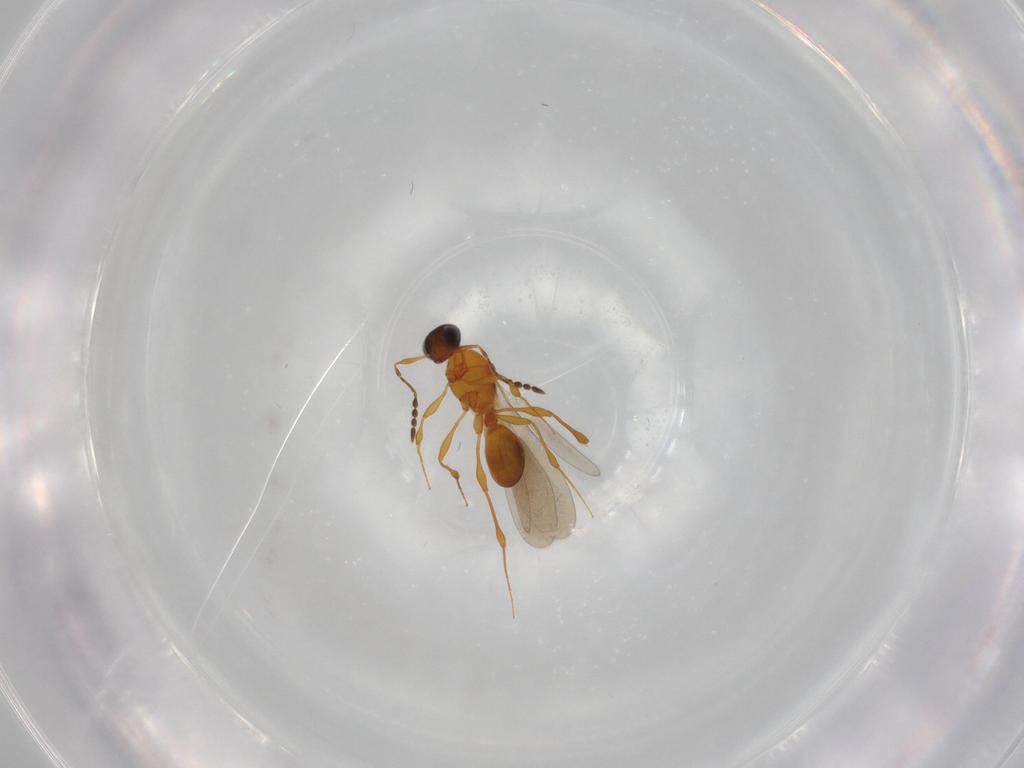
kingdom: Animalia
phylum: Arthropoda
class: Insecta
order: Hymenoptera
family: Platygastridae
